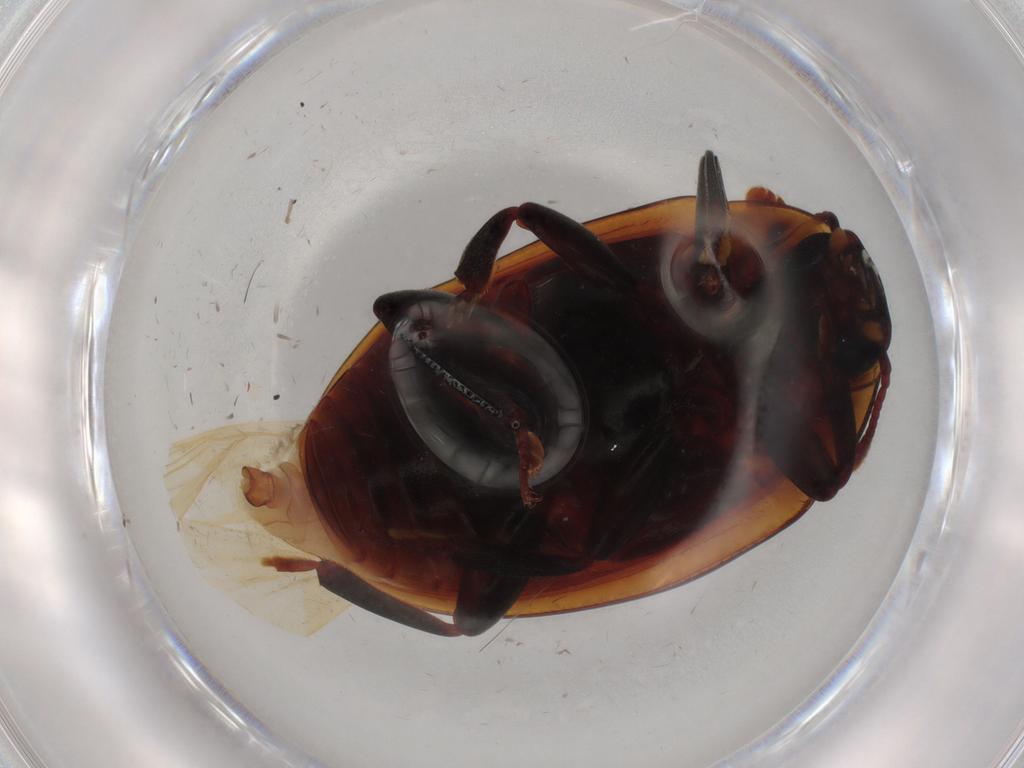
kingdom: Animalia
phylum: Arthropoda
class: Insecta
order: Coleoptera
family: Zopheridae
